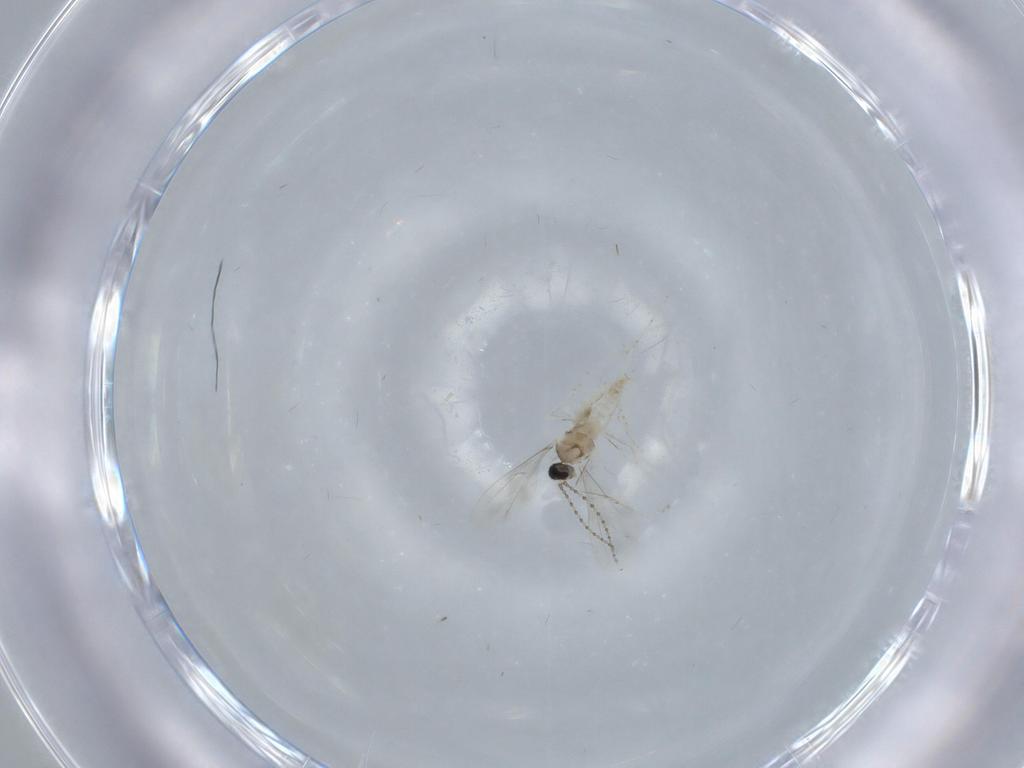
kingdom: Animalia
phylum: Arthropoda
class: Insecta
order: Diptera
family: Cecidomyiidae
